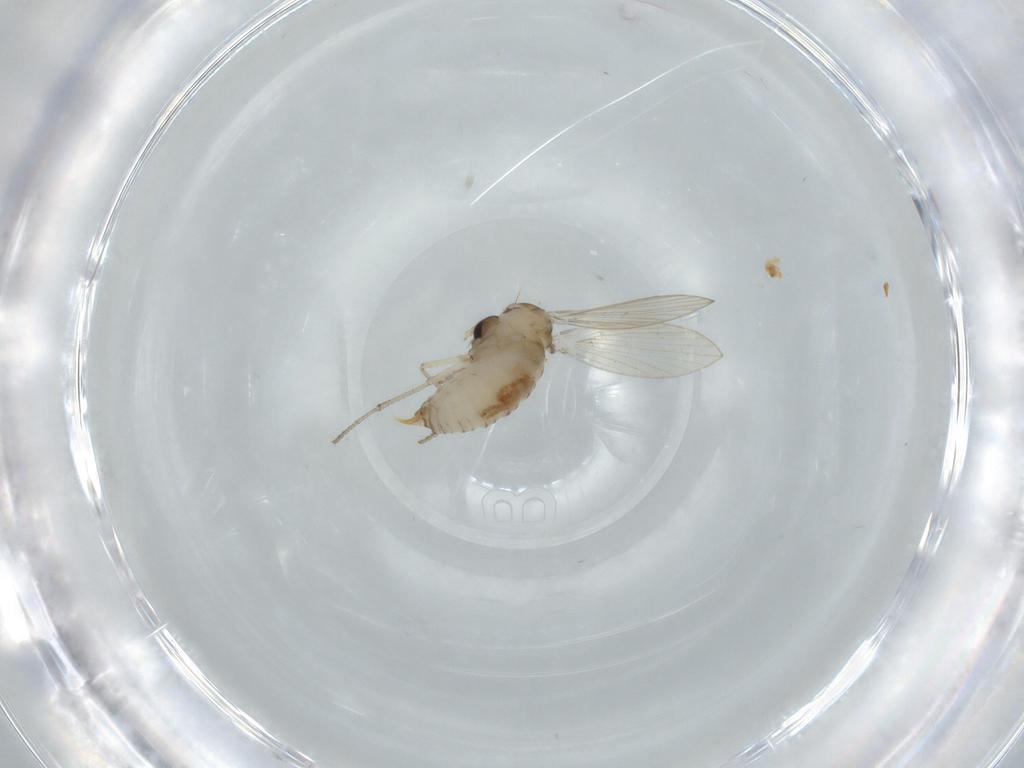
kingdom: Animalia
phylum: Arthropoda
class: Insecta
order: Diptera
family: Psychodidae
